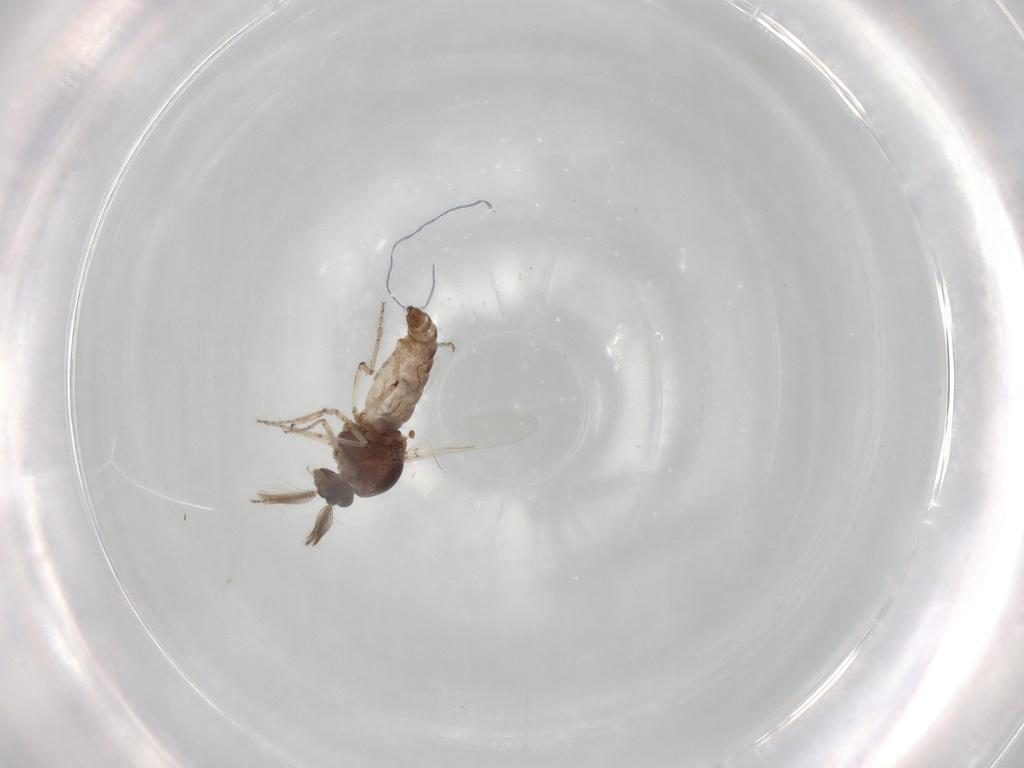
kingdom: Animalia
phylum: Arthropoda
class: Insecta
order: Diptera
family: Ceratopogonidae
